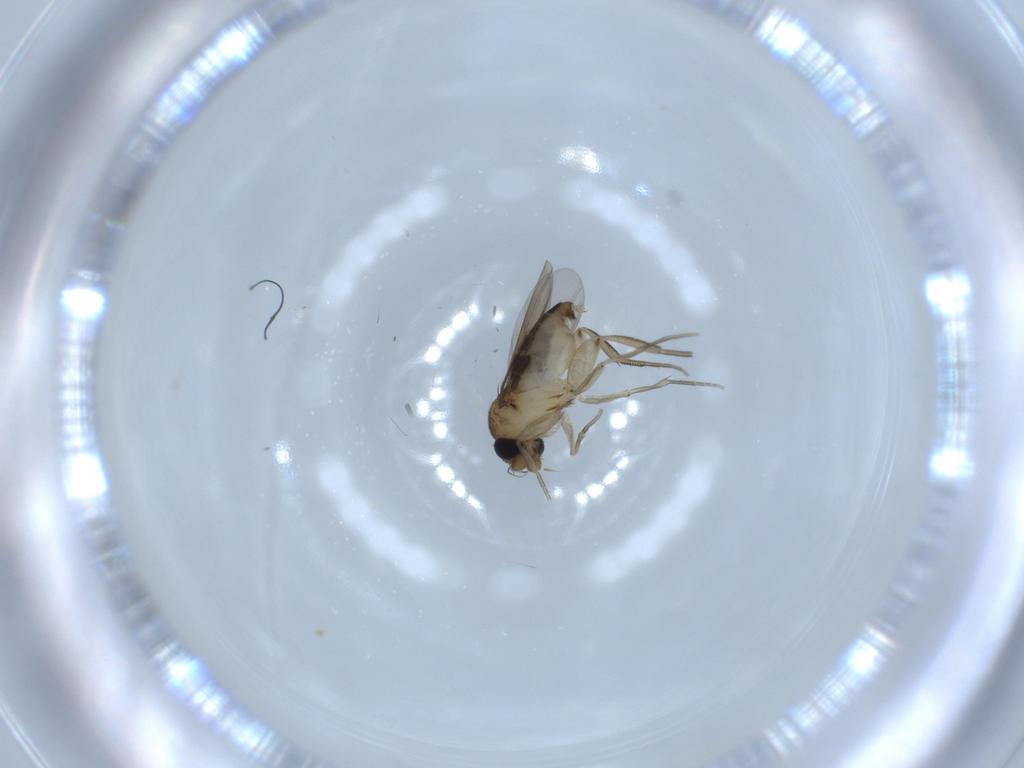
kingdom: Animalia
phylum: Arthropoda
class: Insecta
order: Diptera
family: Phoridae
